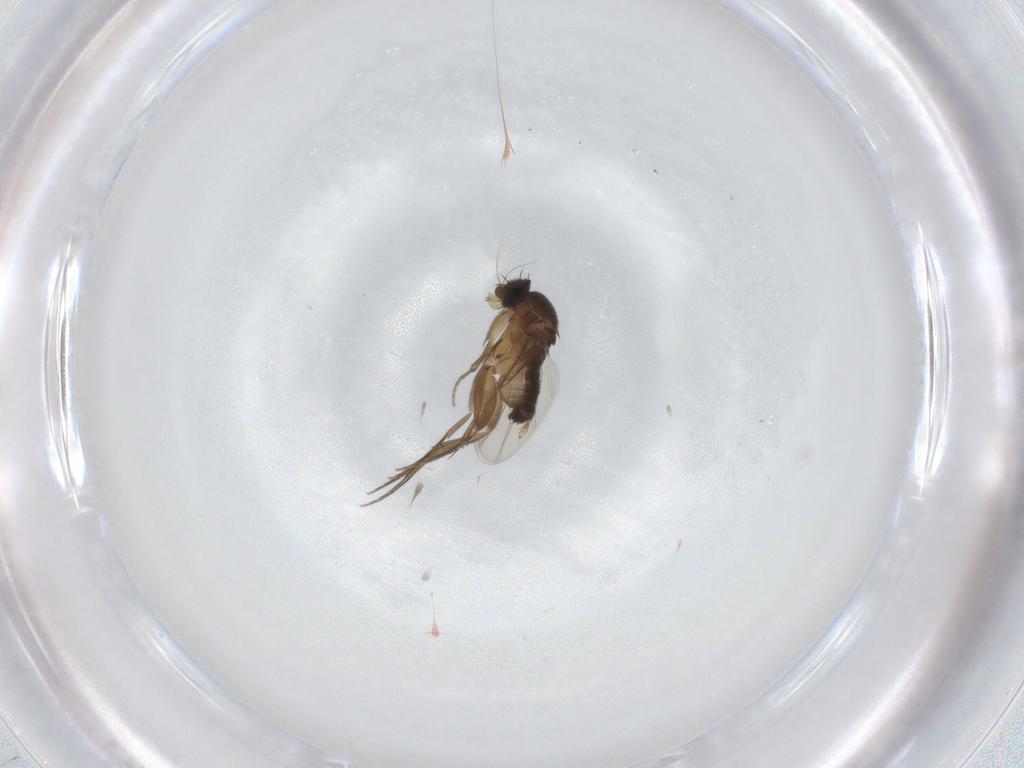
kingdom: Animalia
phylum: Arthropoda
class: Insecta
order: Diptera
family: Phoridae
